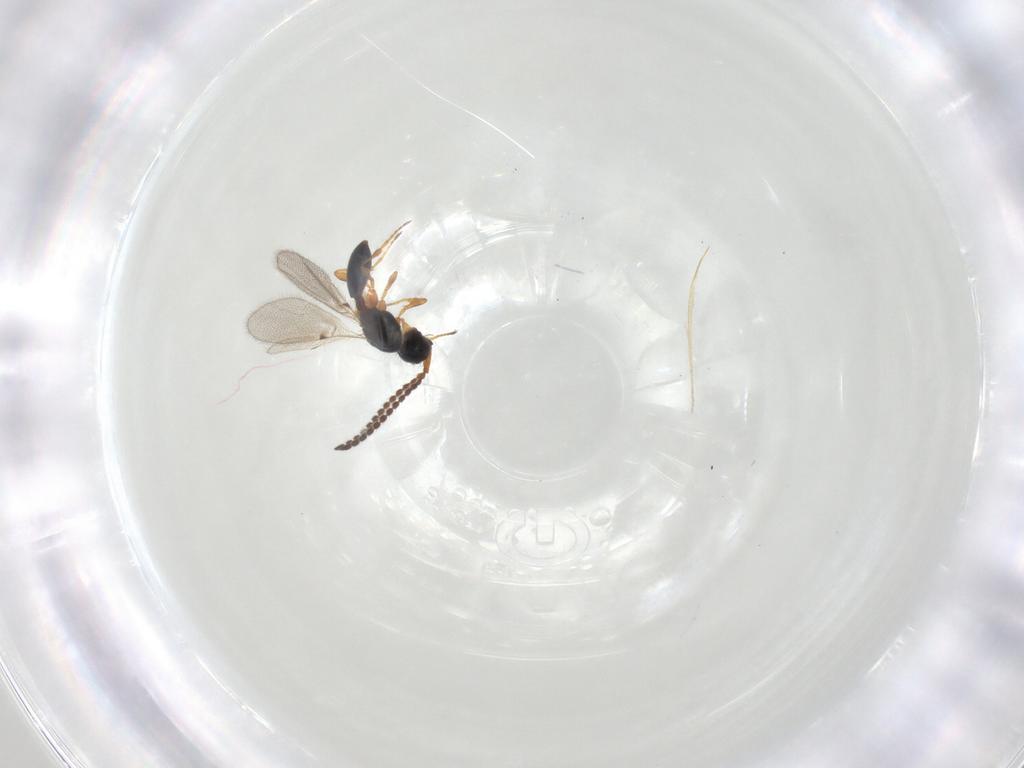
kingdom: Animalia
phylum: Arthropoda
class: Insecta
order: Hymenoptera
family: Diapriidae
